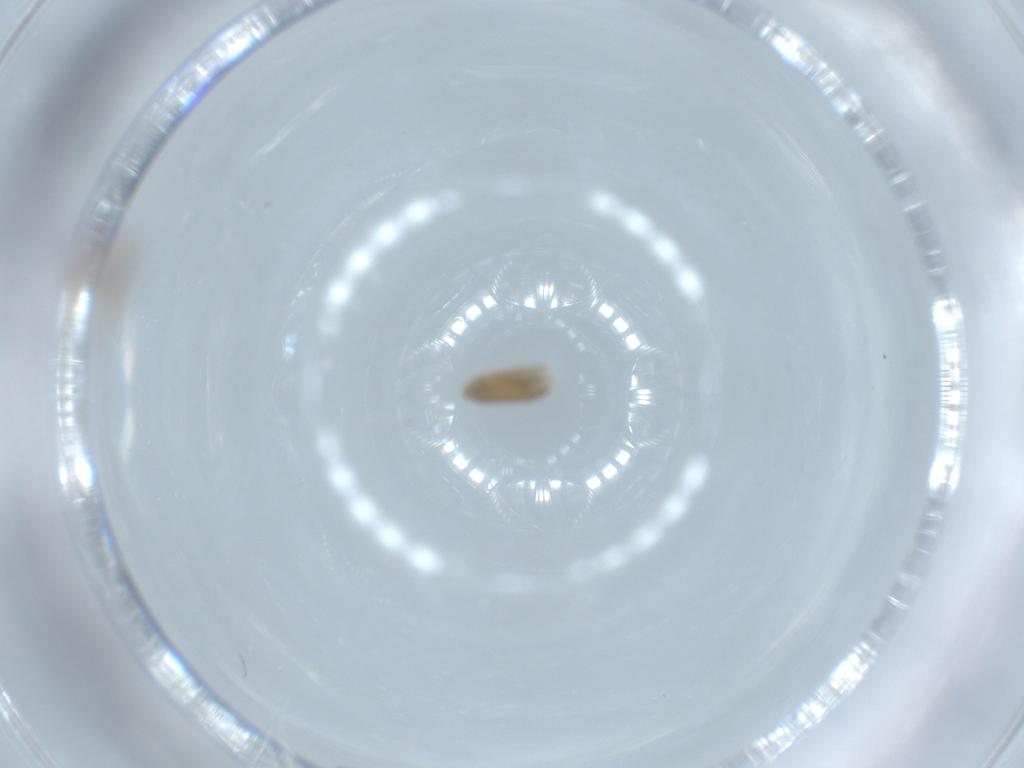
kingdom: Animalia
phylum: Arthropoda
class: Insecta
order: Diptera
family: Chironomidae
